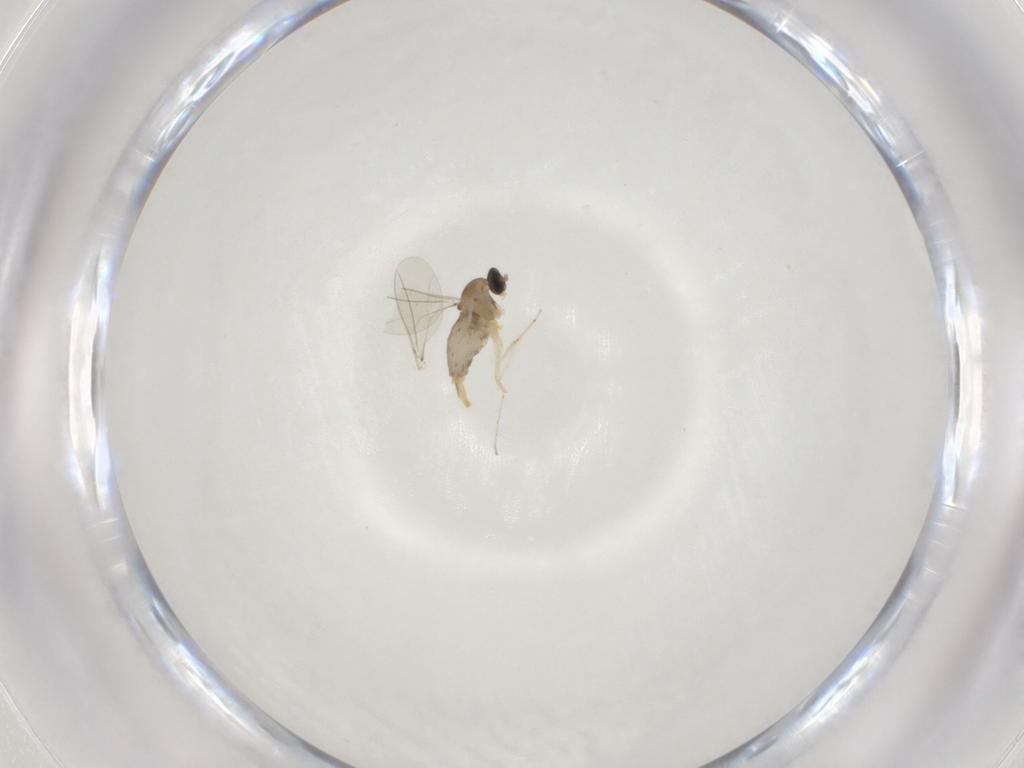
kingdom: Animalia
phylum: Arthropoda
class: Insecta
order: Diptera
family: Cecidomyiidae
